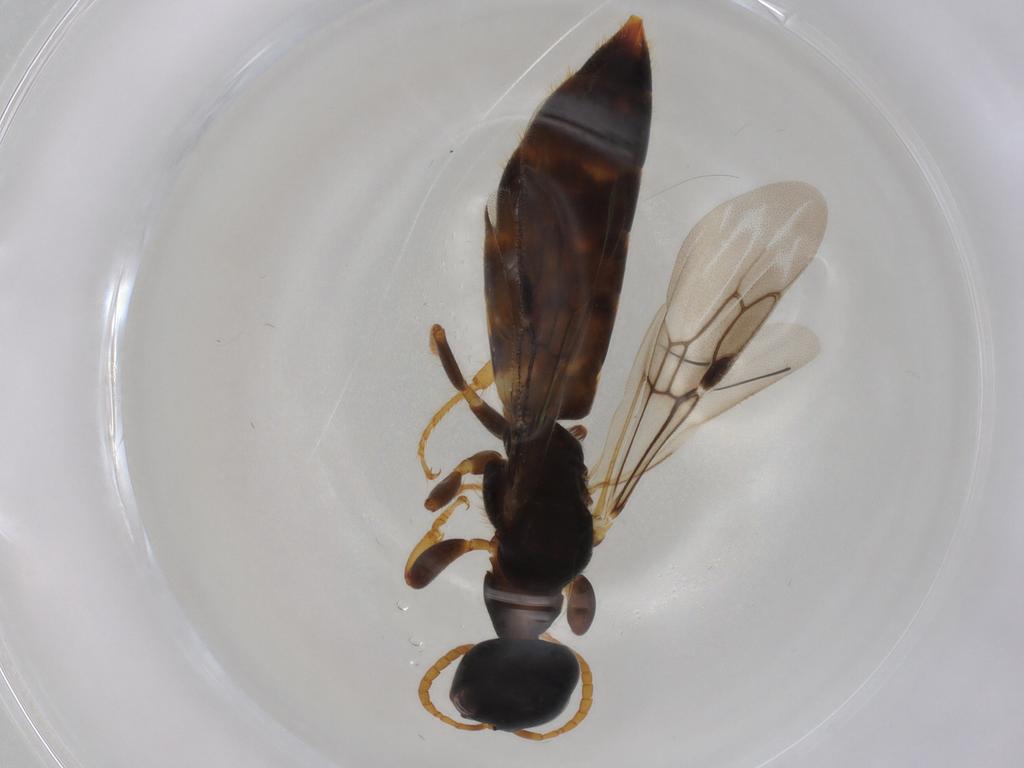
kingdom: Animalia
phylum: Arthropoda
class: Insecta
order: Hymenoptera
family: Scolebythidae
